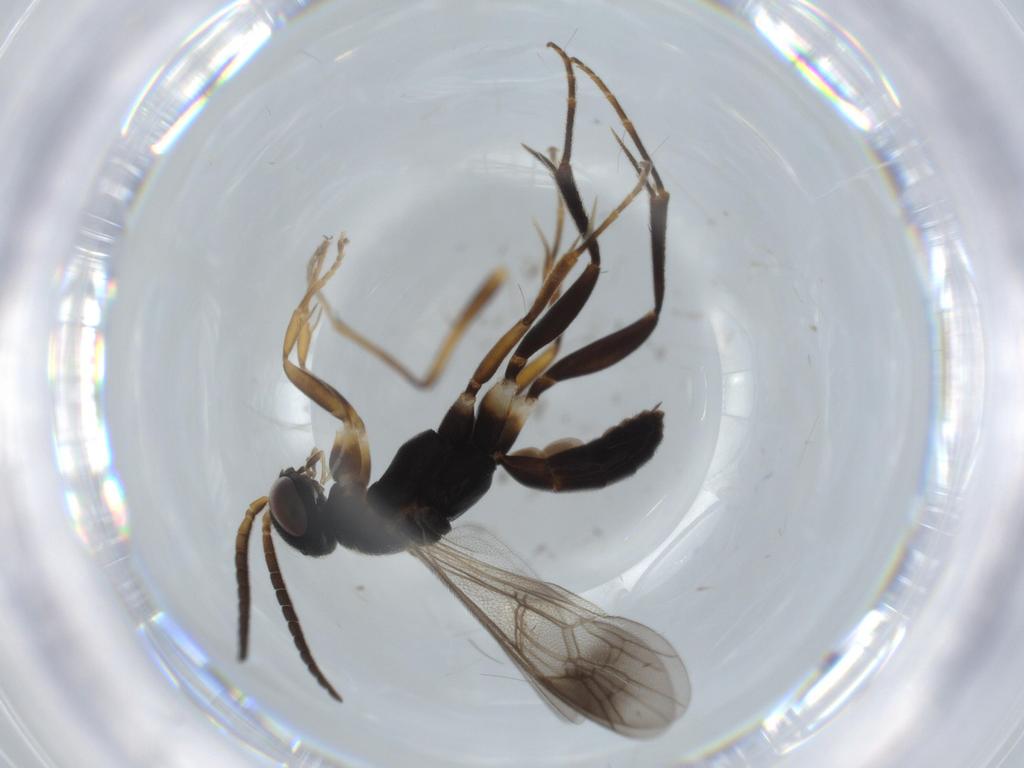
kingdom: Animalia
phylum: Arthropoda
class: Insecta
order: Hymenoptera
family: Pompilidae
